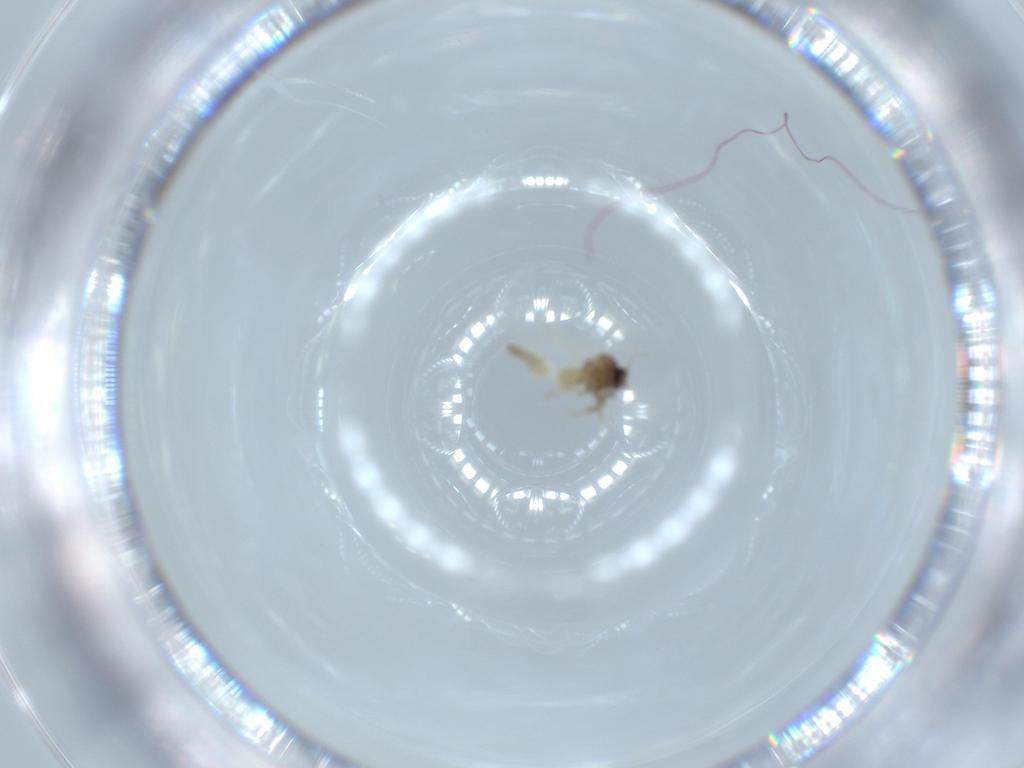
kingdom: Animalia
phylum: Arthropoda
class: Insecta
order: Diptera
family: Ceratopogonidae
